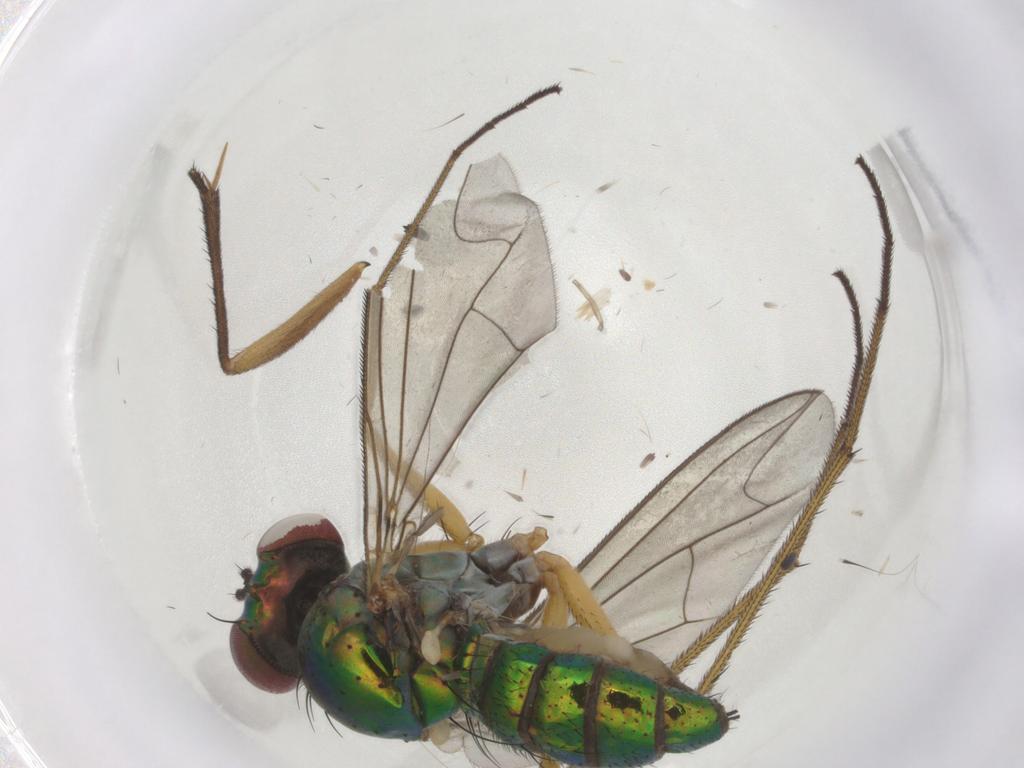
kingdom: Animalia
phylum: Arthropoda
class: Insecta
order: Diptera
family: Dolichopodidae
